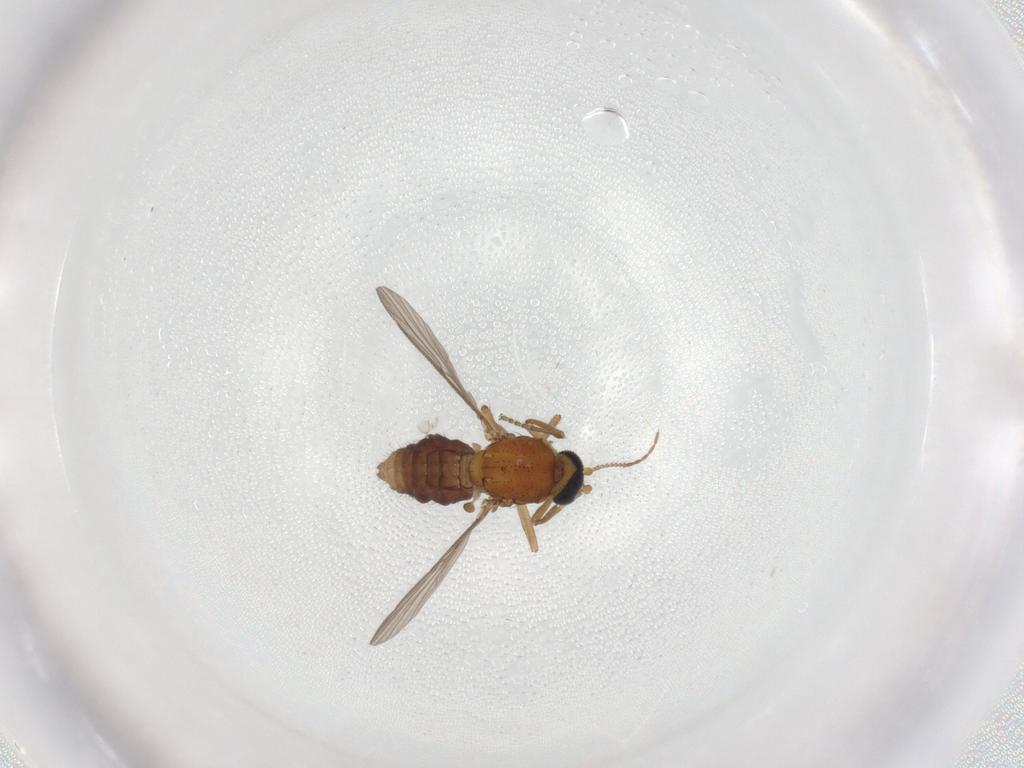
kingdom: Animalia
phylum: Arthropoda
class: Insecta
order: Diptera
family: Ceratopogonidae
